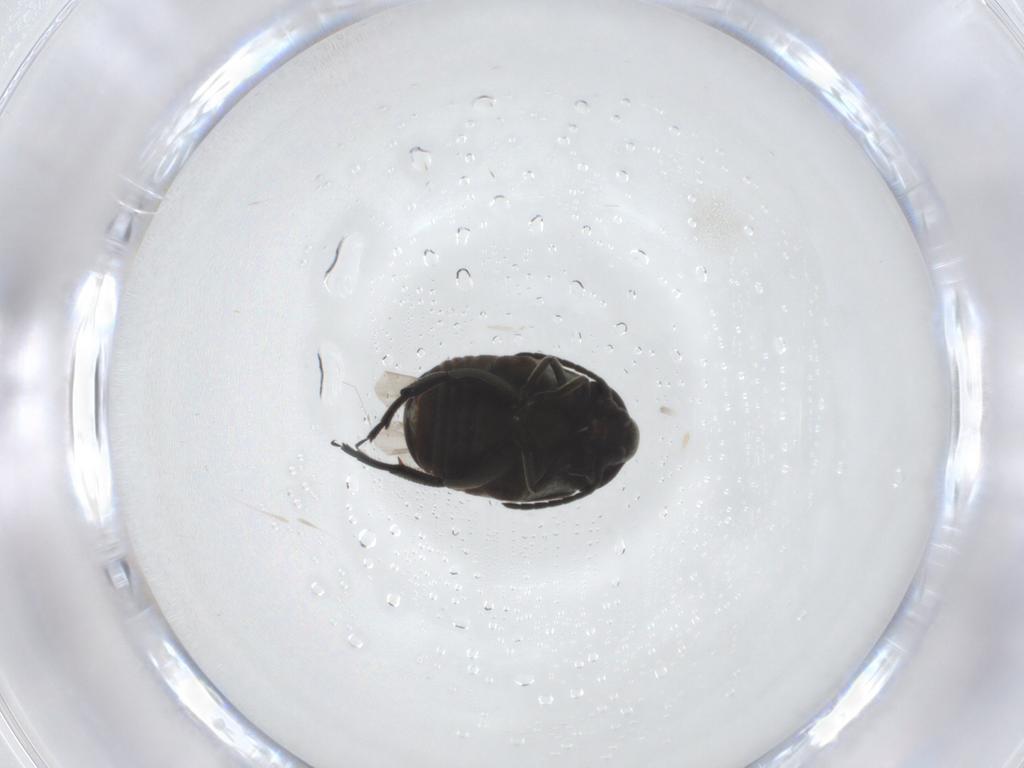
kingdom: Animalia
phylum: Arthropoda
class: Insecta
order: Coleoptera
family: Chrysomelidae
